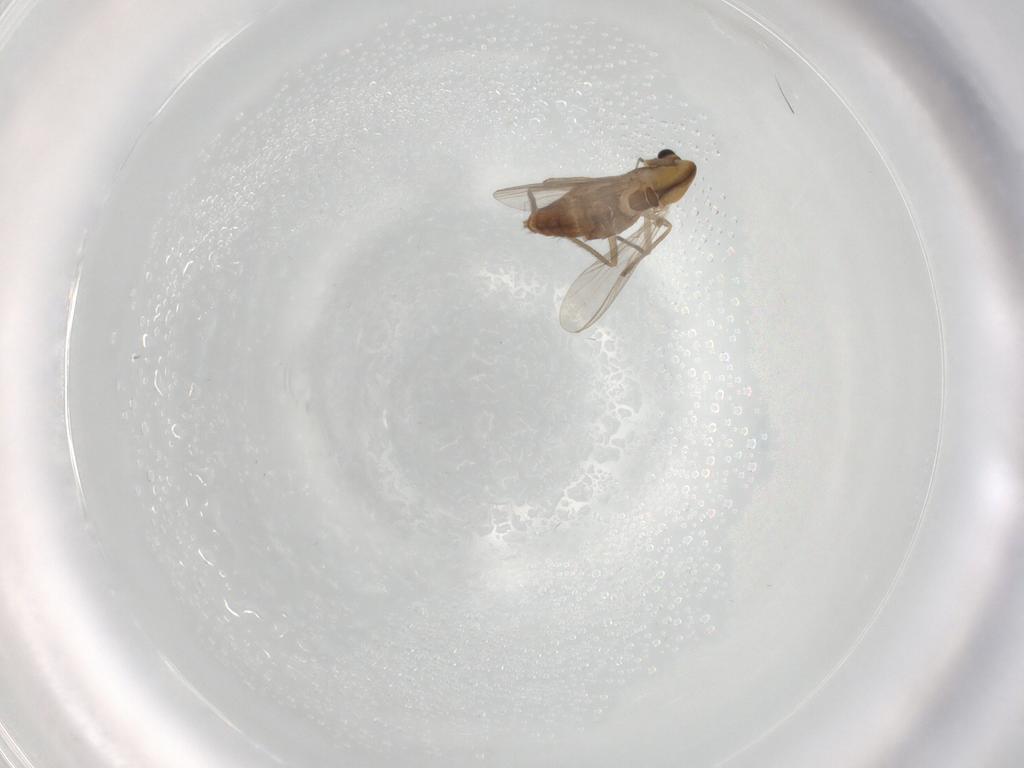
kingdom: Animalia
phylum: Arthropoda
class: Insecta
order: Diptera
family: Chironomidae
